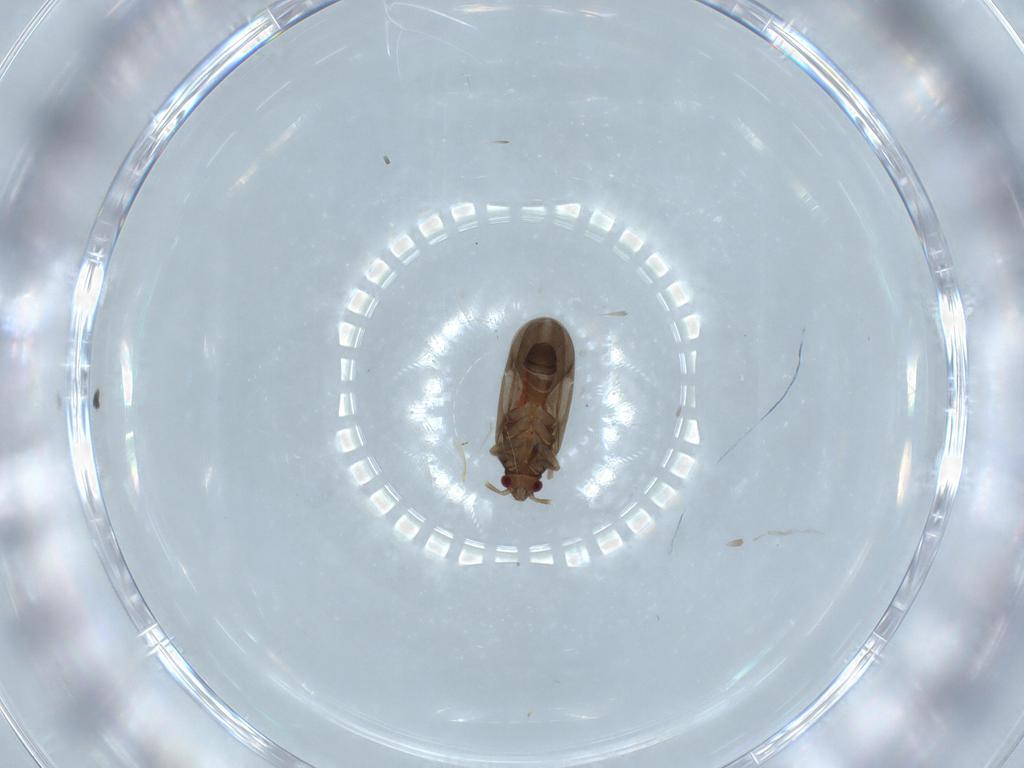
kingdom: Animalia
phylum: Arthropoda
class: Insecta
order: Hemiptera
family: Ceratocombidae
